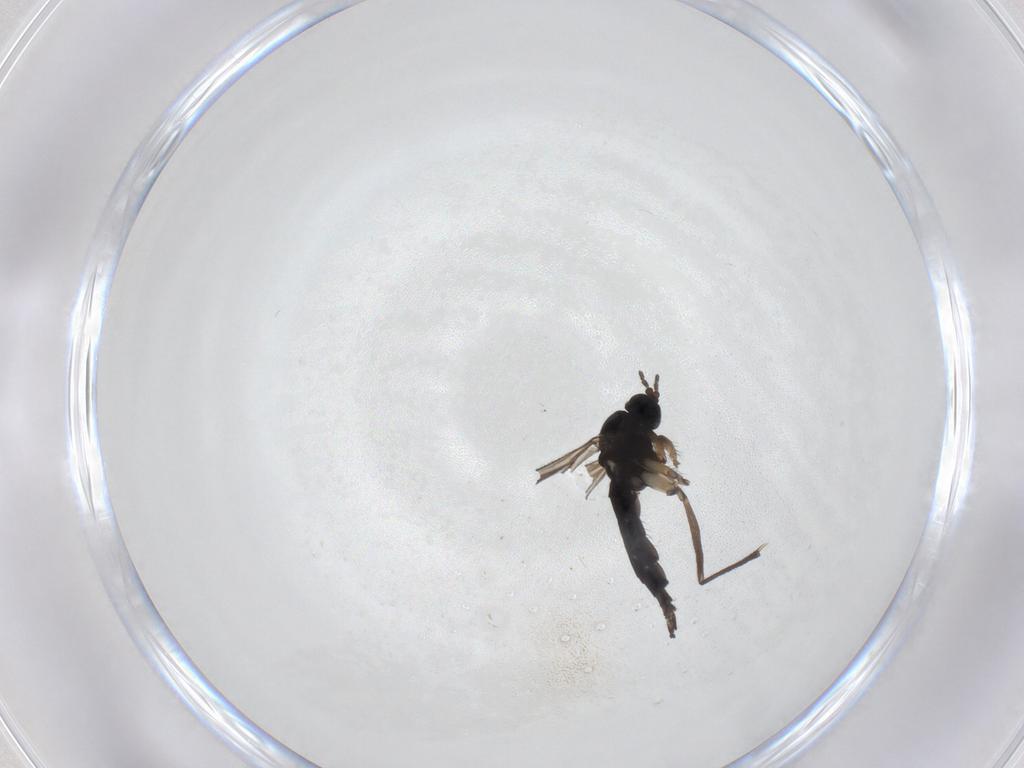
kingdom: Animalia
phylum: Arthropoda
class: Insecta
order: Diptera
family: Sciaridae
